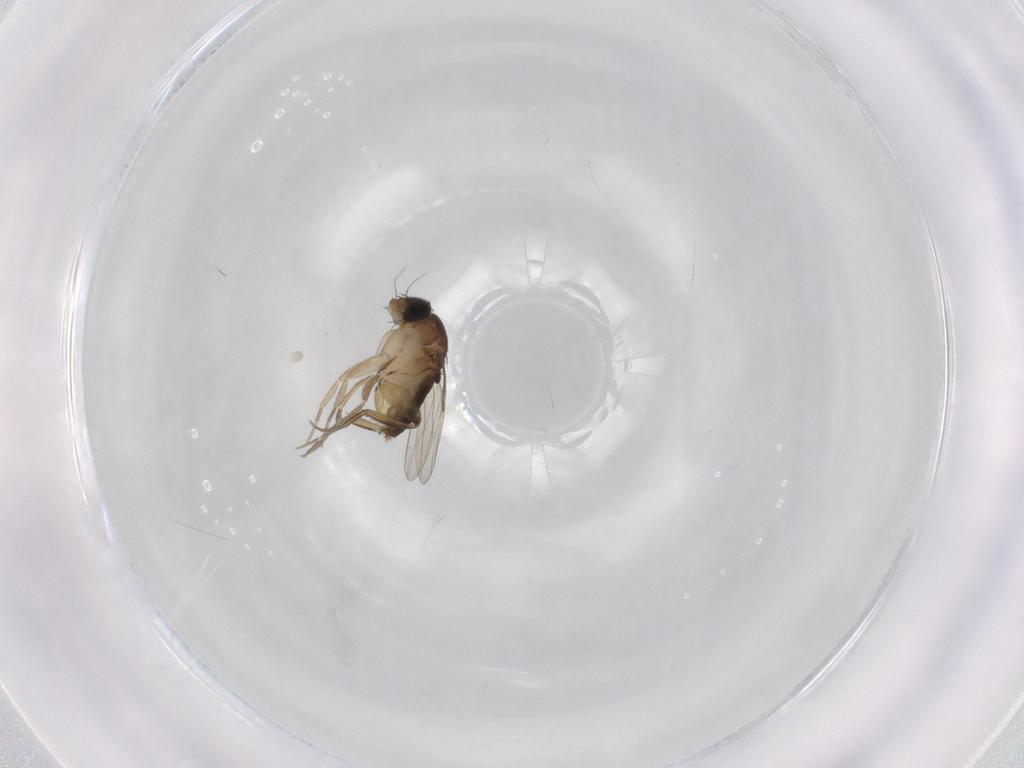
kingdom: Animalia
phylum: Arthropoda
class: Insecta
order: Diptera
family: Phoridae
